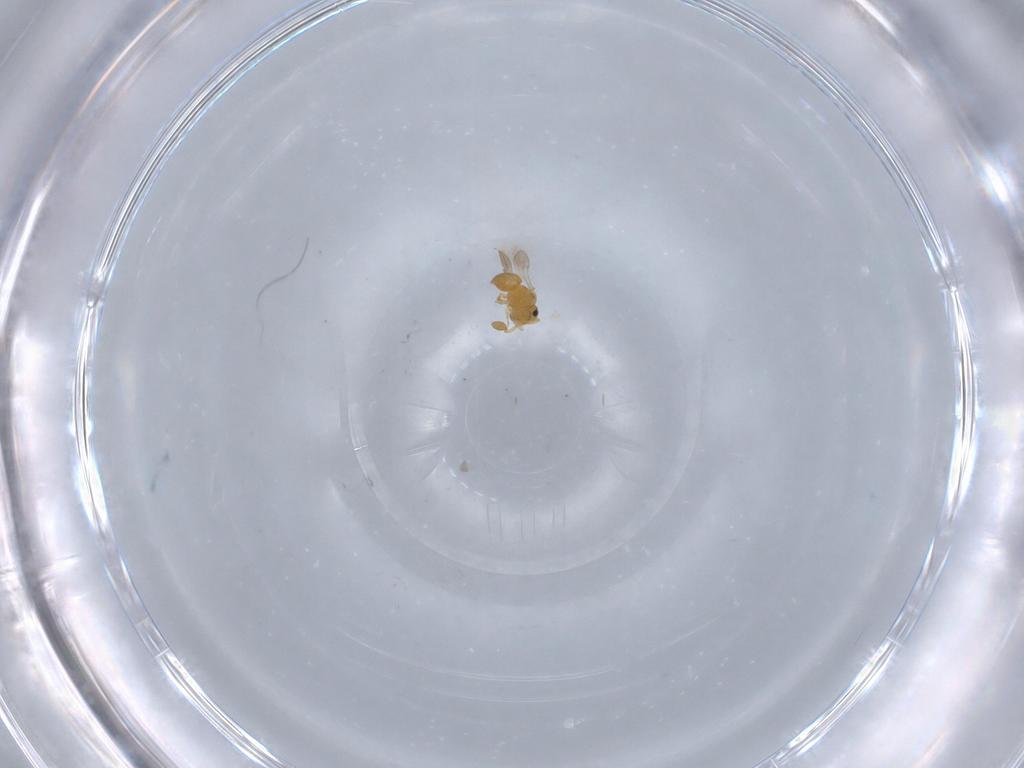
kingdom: Animalia
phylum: Arthropoda
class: Insecta
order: Hymenoptera
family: Scelionidae
